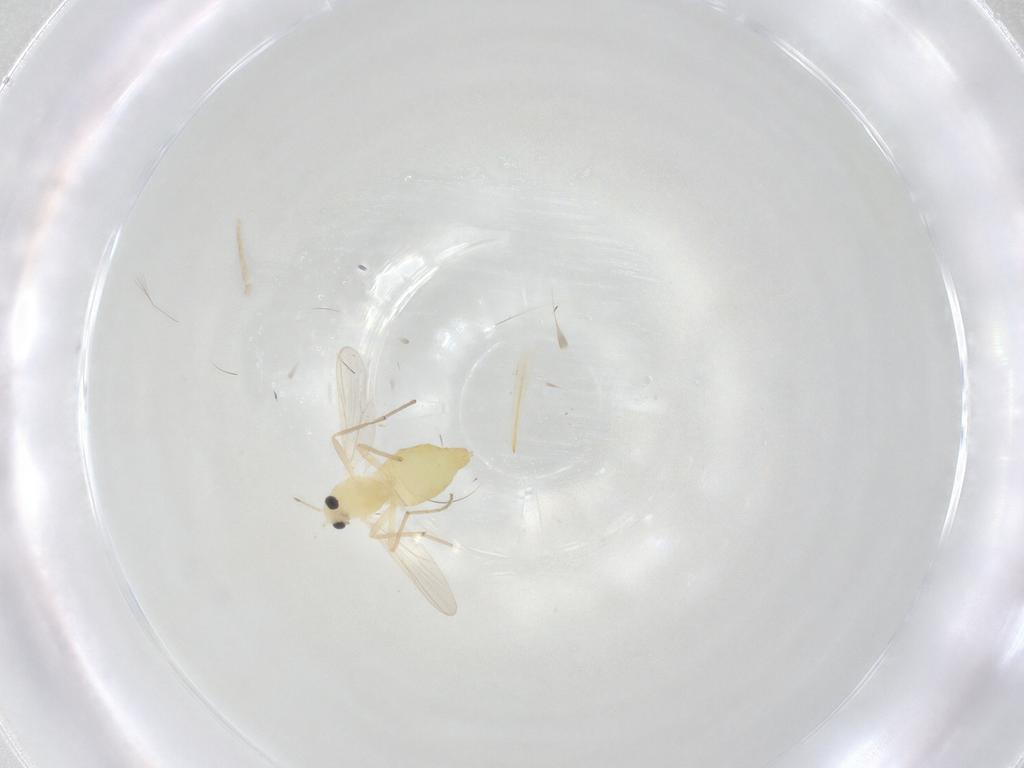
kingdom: Animalia
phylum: Arthropoda
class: Insecta
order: Diptera
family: Chironomidae
